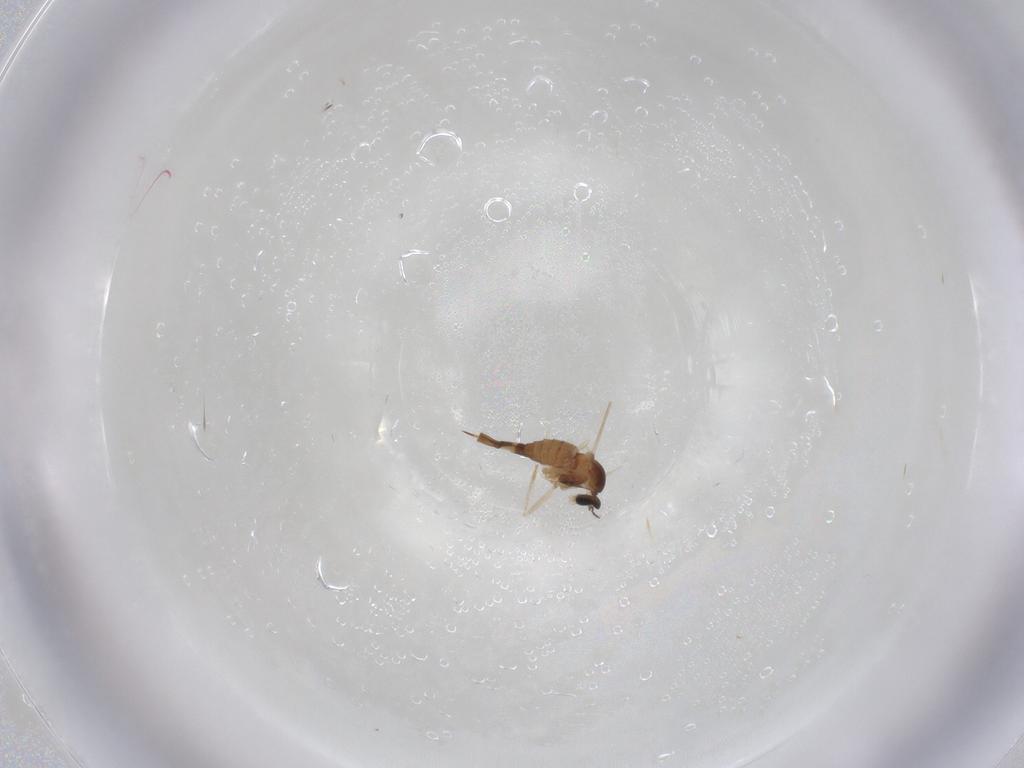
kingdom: Animalia
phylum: Arthropoda
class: Insecta
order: Diptera
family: Cecidomyiidae
